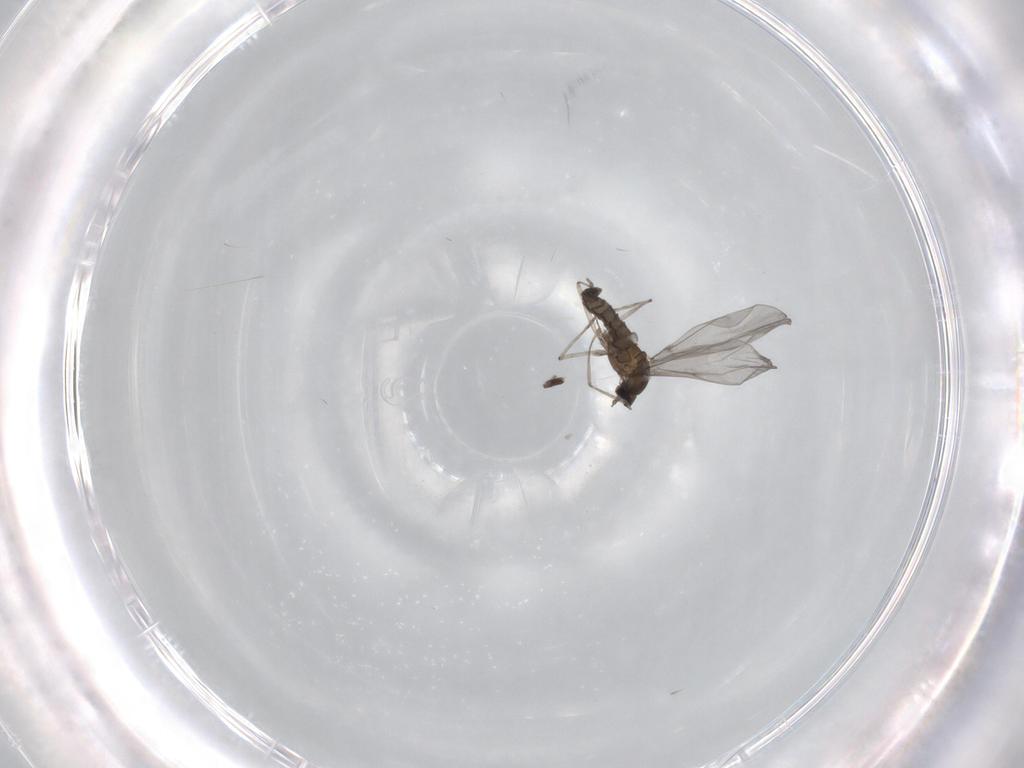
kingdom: Animalia
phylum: Arthropoda
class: Insecta
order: Diptera
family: Cecidomyiidae
